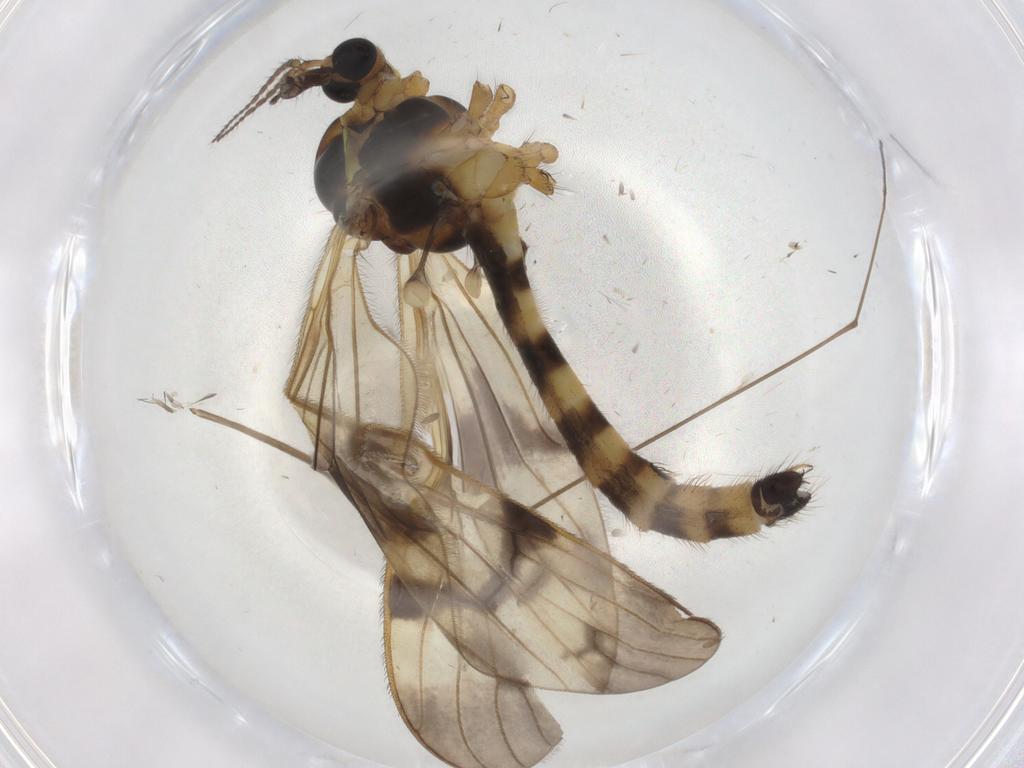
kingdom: Animalia
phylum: Arthropoda
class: Insecta
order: Diptera
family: Limoniidae
